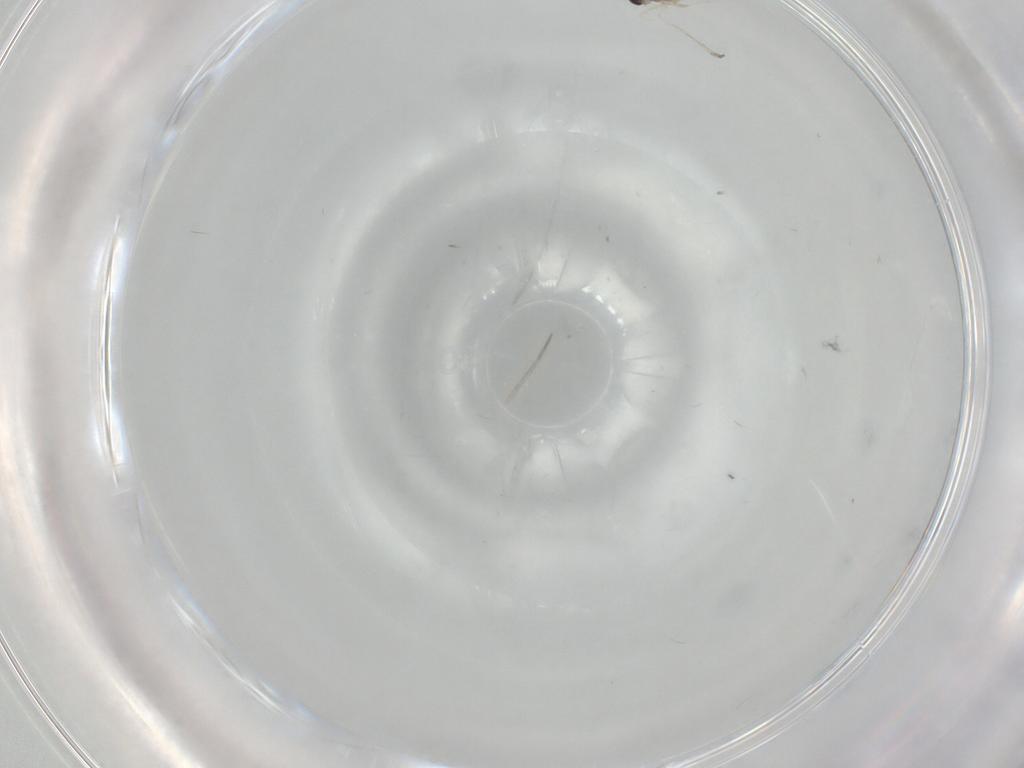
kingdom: Animalia
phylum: Arthropoda
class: Insecta
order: Diptera
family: Cecidomyiidae
